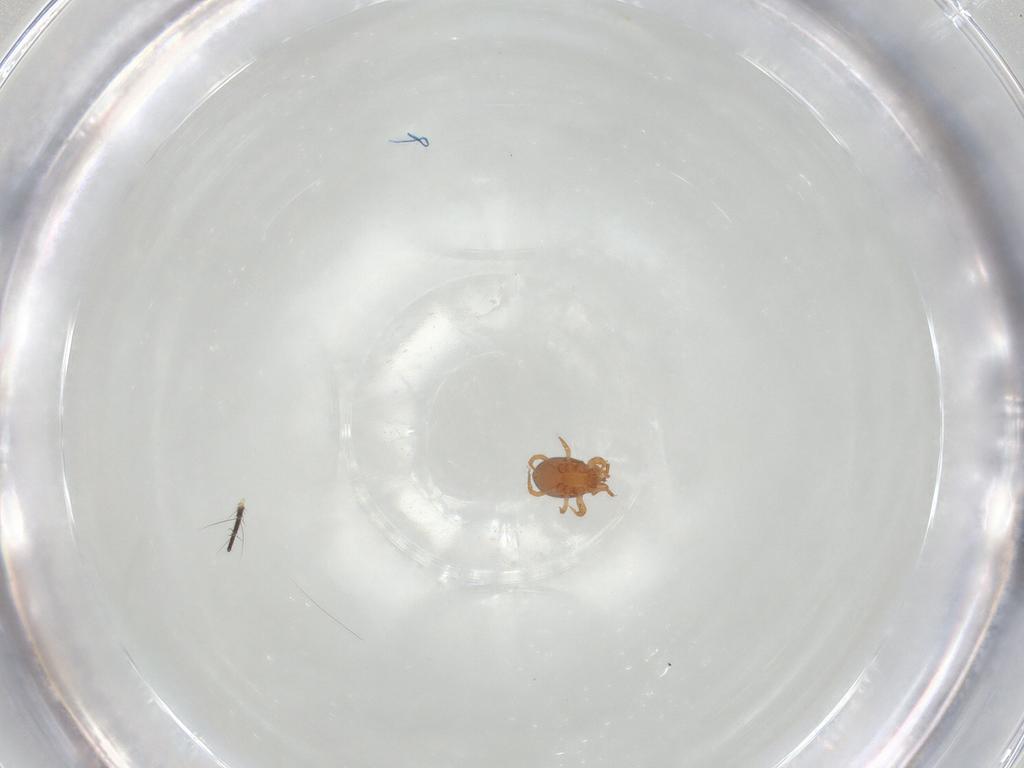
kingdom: Animalia
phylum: Arthropoda
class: Arachnida
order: Mesostigmata
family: Parasitidae
